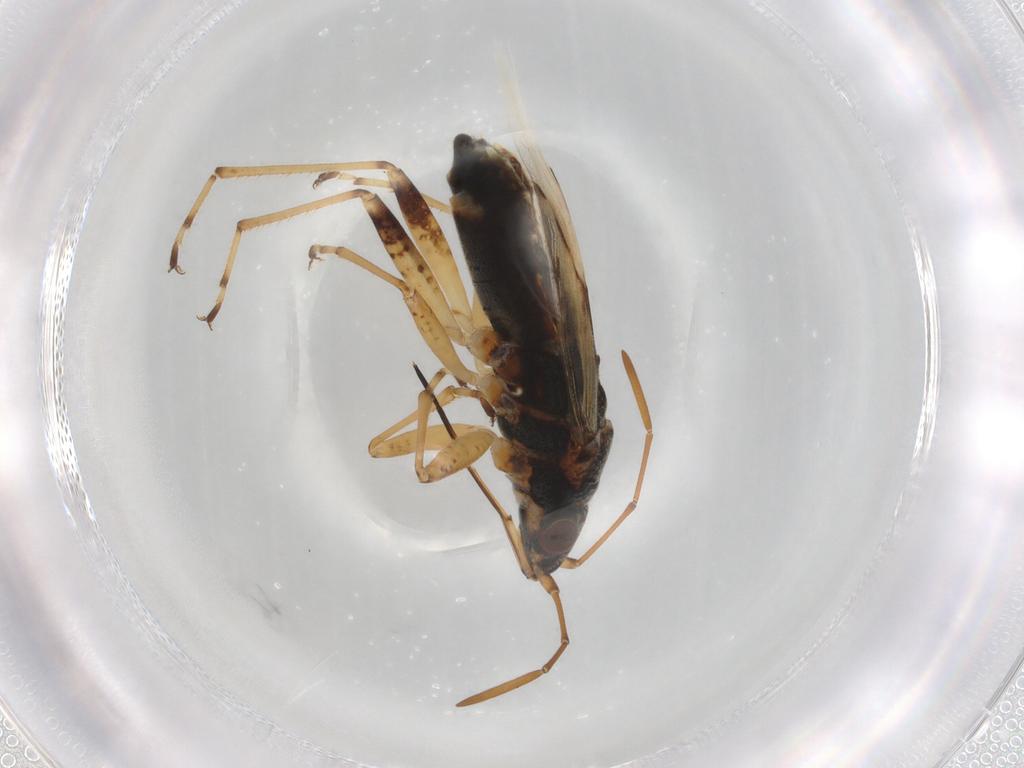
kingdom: Animalia
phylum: Arthropoda
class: Insecta
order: Hemiptera
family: Lygaeidae
